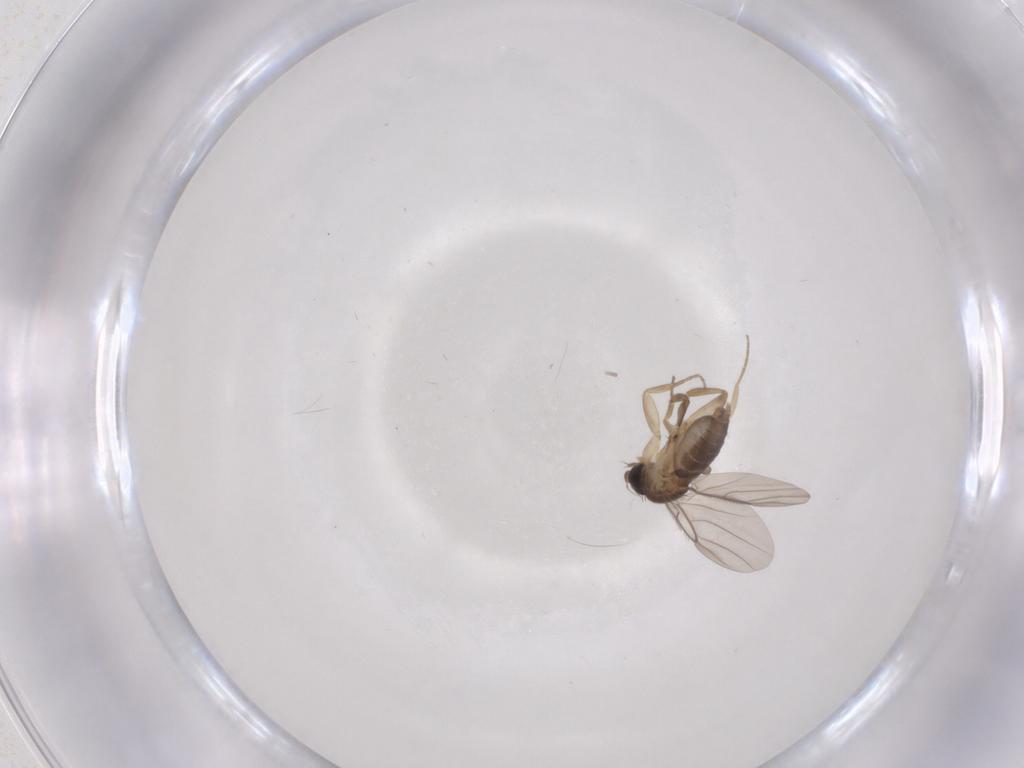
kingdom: Animalia
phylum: Arthropoda
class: Insecta
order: Diptera
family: Phoridae
